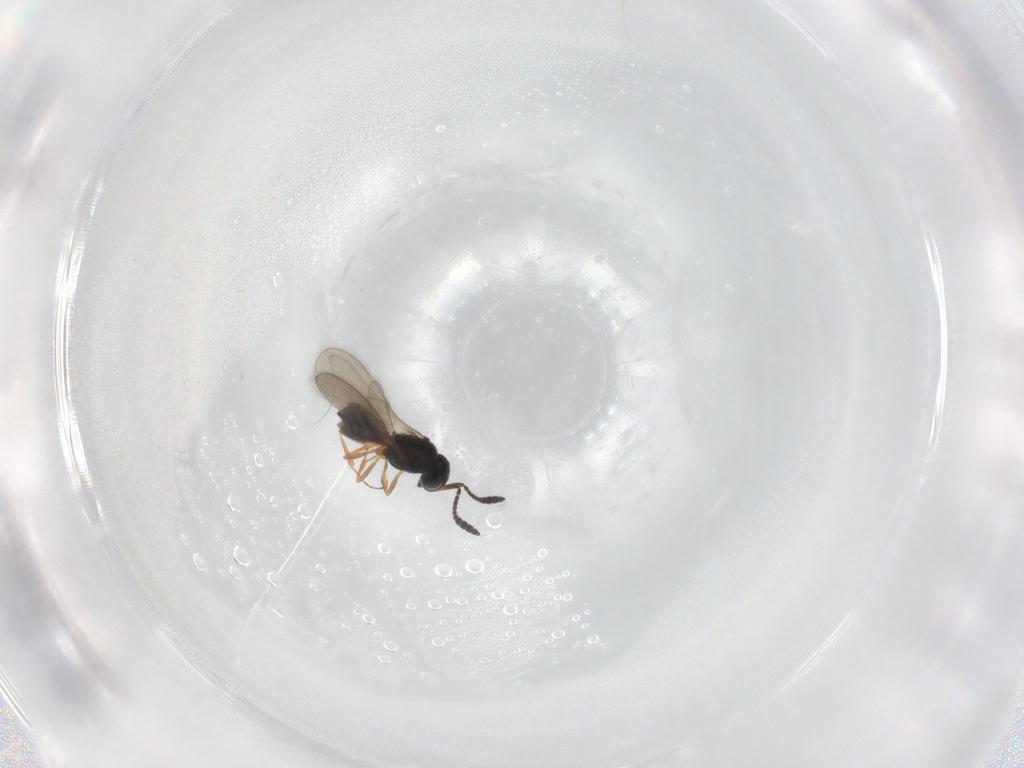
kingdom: Animalia
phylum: Arthropoda
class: Insecta
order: Hymenoptera
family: Scelionidae
